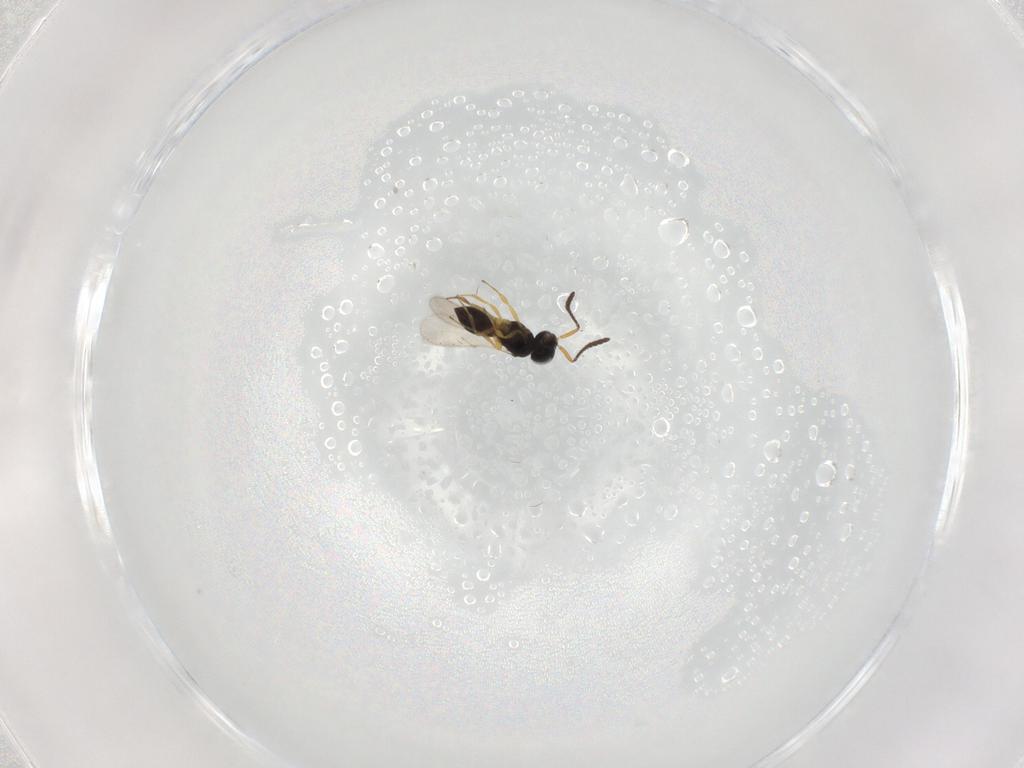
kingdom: Animalia
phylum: Arthropoda
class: Insecta
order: Hymenoptera
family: Scelionidae
